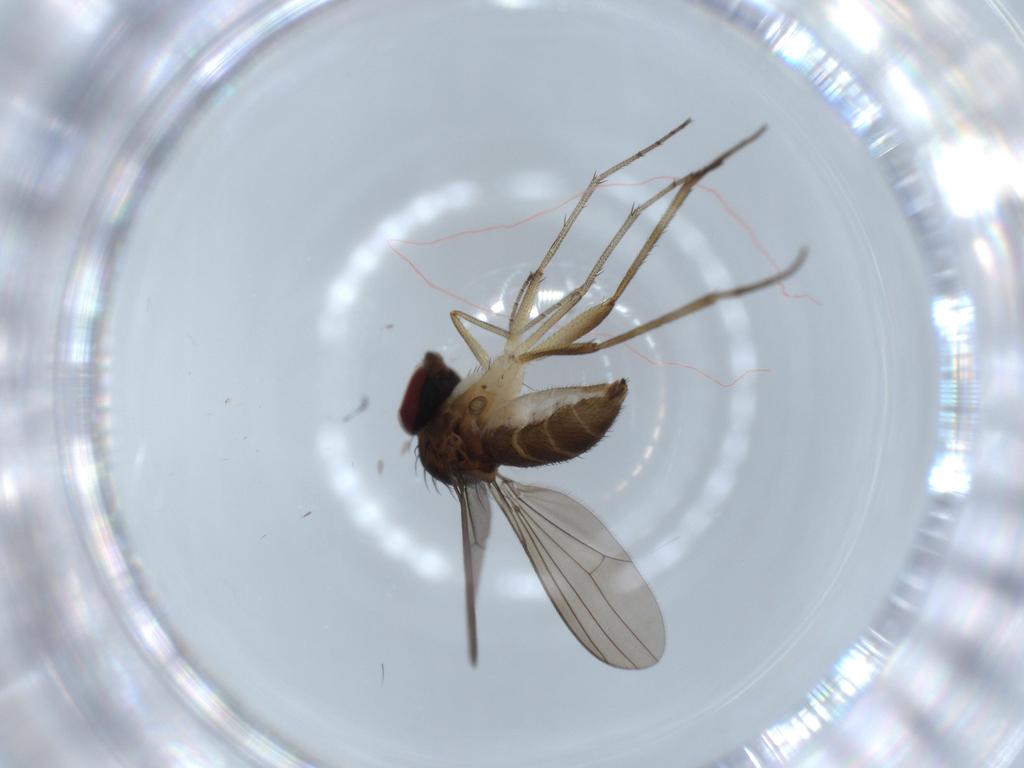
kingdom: Animalia
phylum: Arthropoda
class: Insecta
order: Diptera
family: Dolichopodidae
